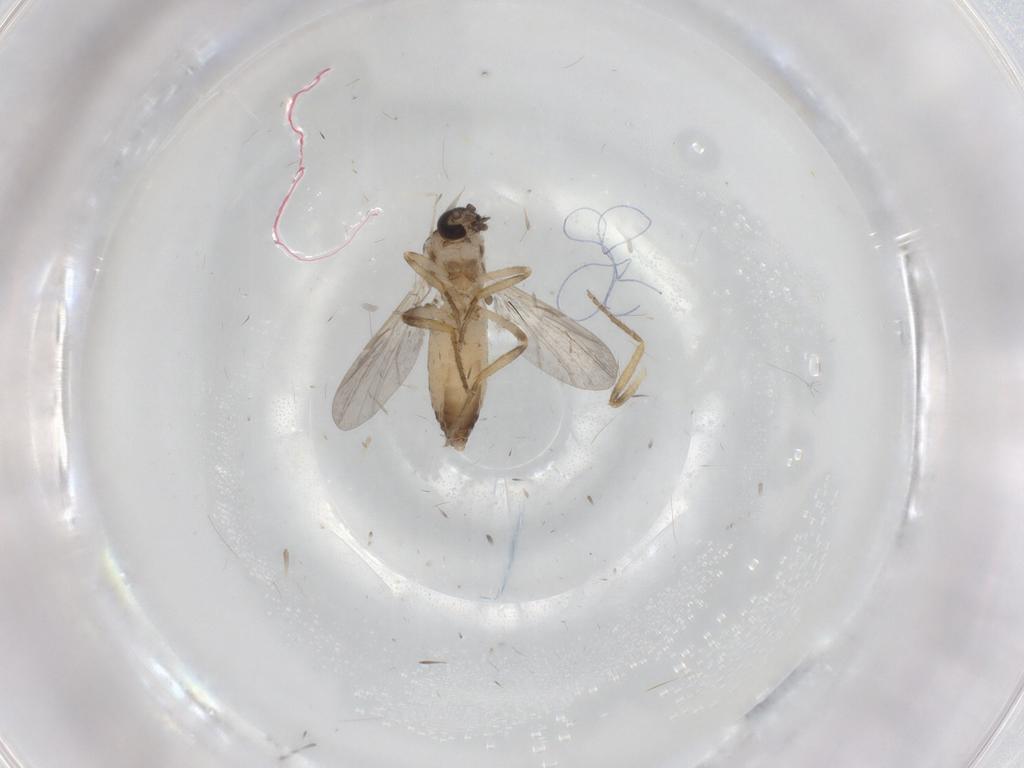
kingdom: Animalia
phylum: Arthropoda
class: Insecta
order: Diptera
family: Ceratopogonidae
